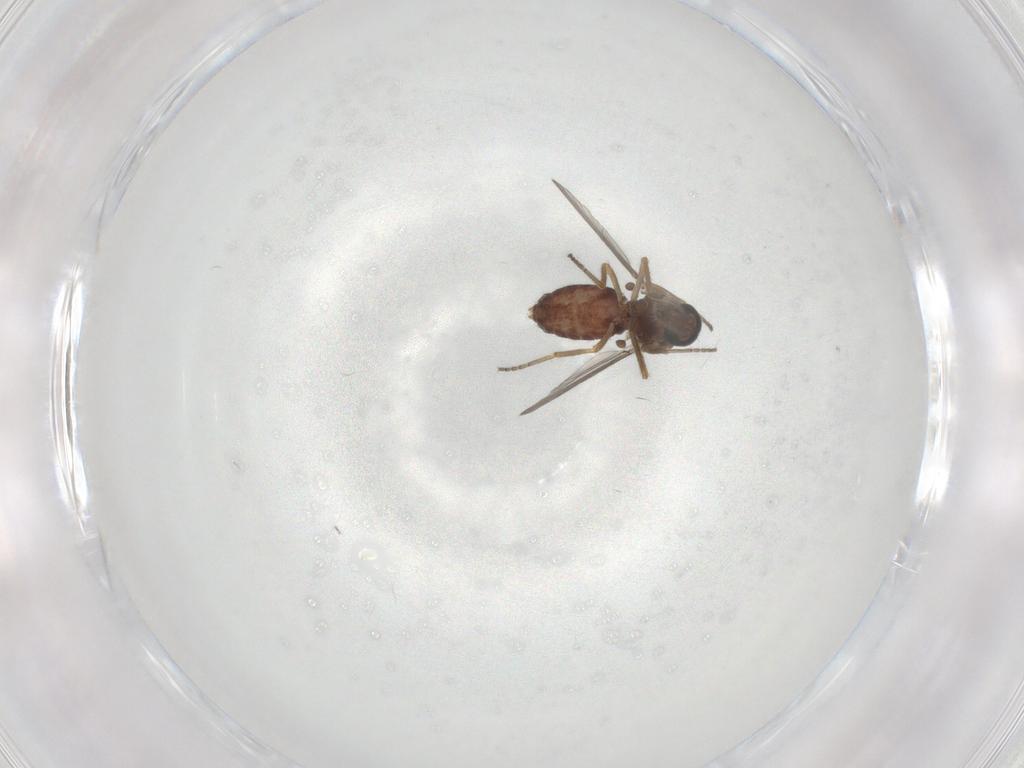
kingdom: Animalia
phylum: Arthropoda
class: Insecta
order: Diptera
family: Ceratopogonidae
